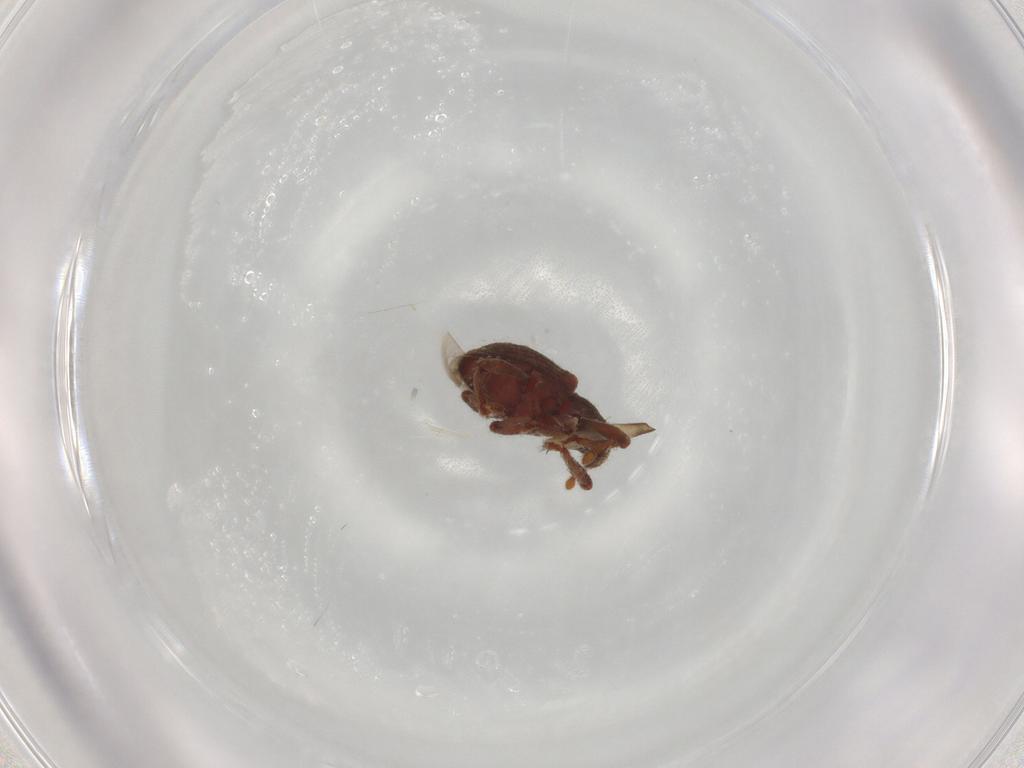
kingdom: Animalia
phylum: Arthropoda
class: Insecta
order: Coleoptera
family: Curculionidae
